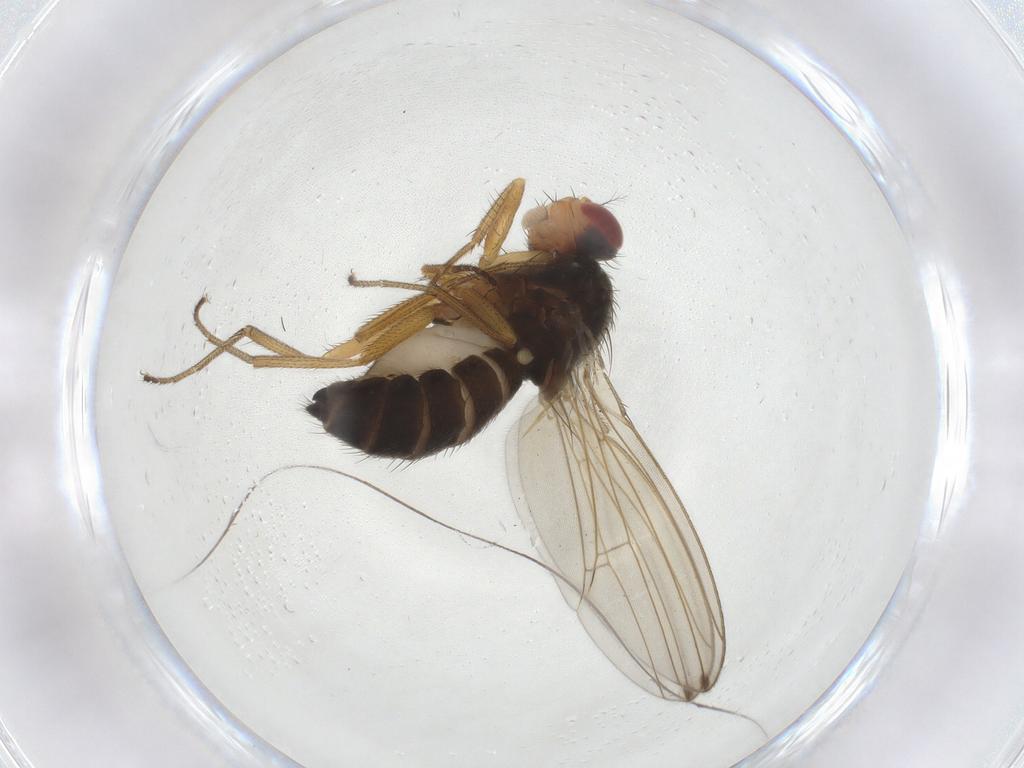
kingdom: Animalia
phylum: Arthropoda
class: Insecta
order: Diptera
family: Drosophilidae
